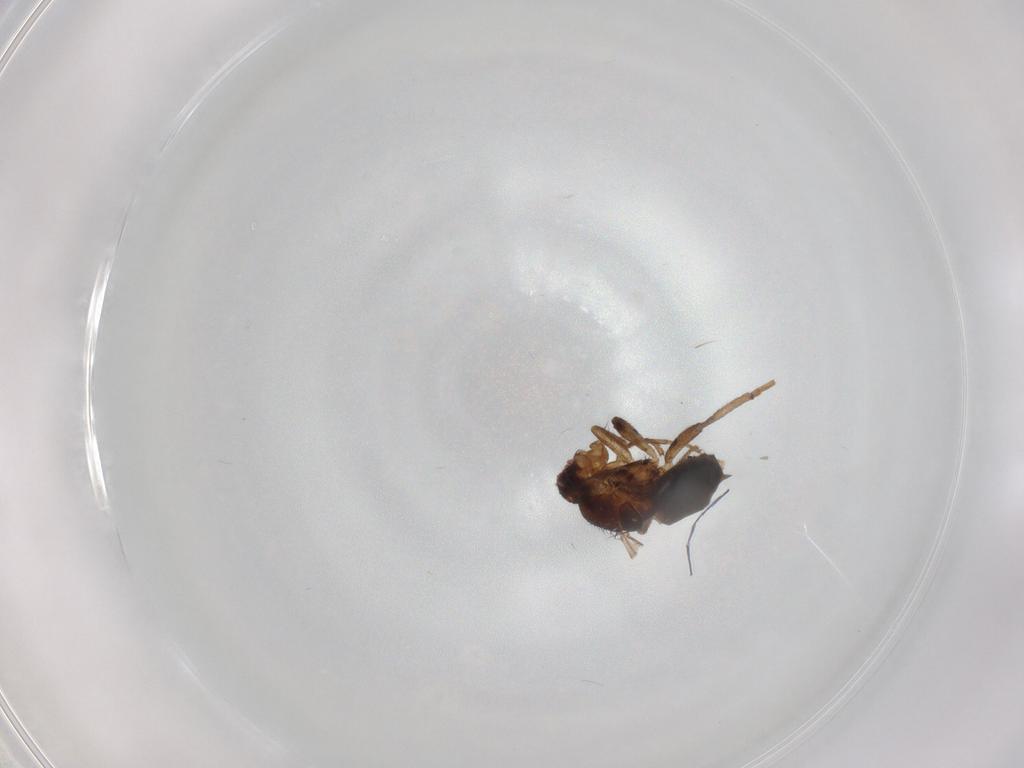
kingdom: Animalia
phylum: Arthropoda
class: Insecta
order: Diptera
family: Sphaeroceridae
